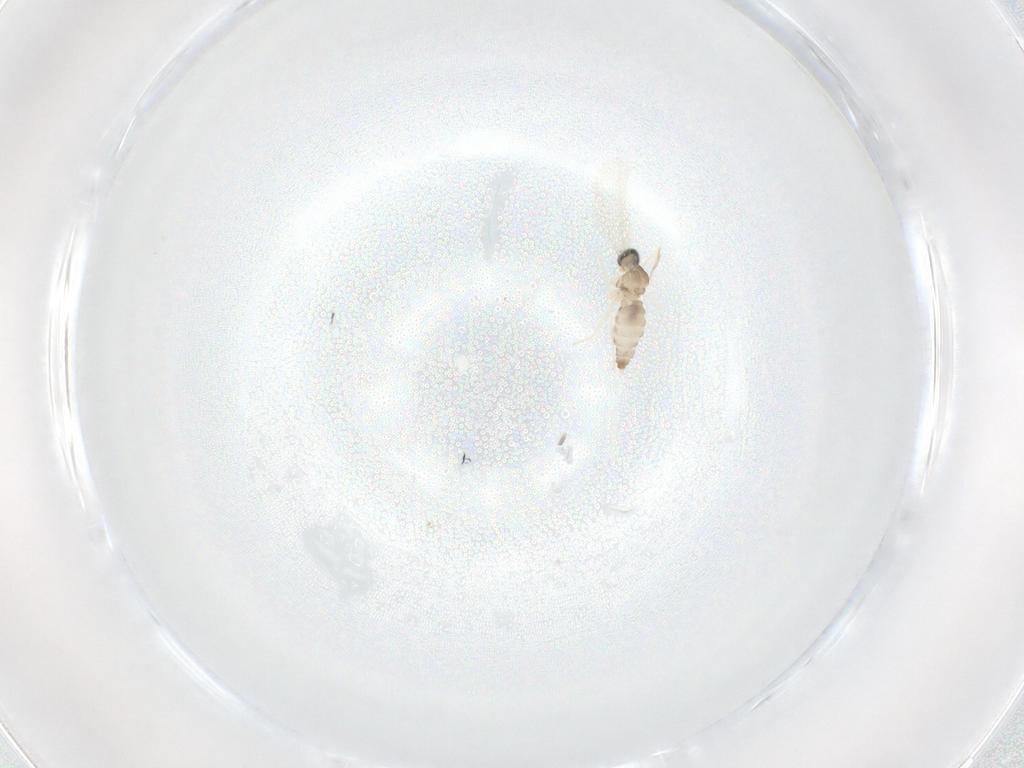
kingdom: Animalia
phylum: Arthropoda
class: Insecta
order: Diptera
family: Cecidomyiidae
